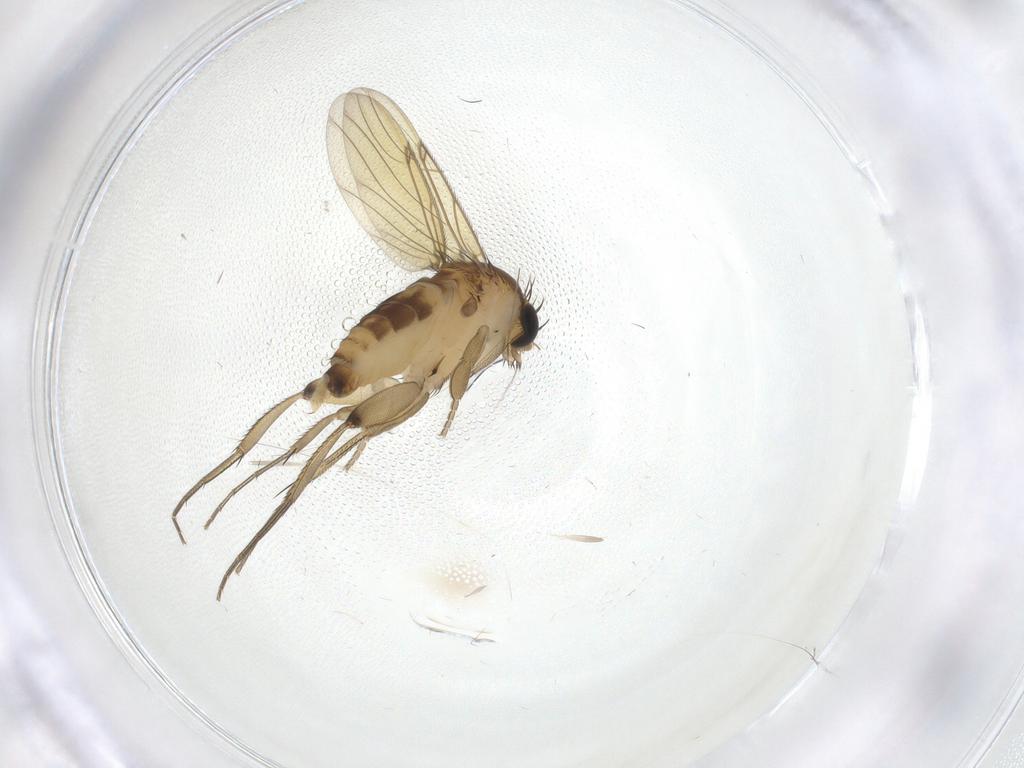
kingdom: Animalia
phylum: Arthropoda
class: Insecta
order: Diptera
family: Phoridae
